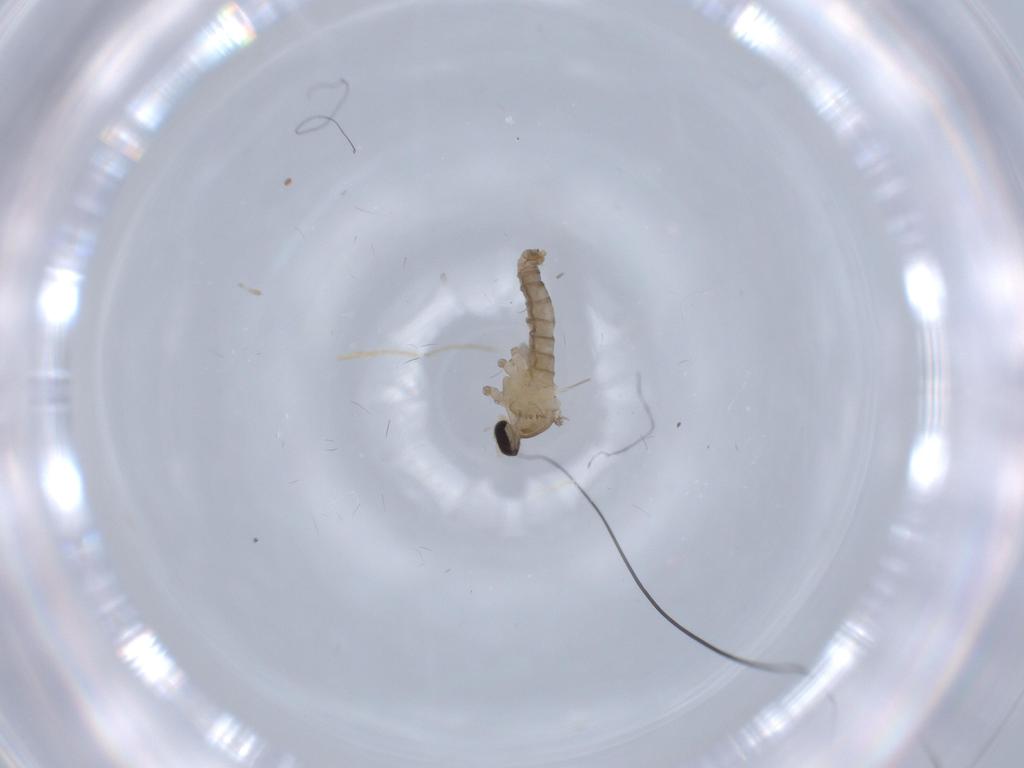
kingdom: Animalia
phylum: Arthropoda
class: Insecta
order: Diptera
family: Cecidomyiidae
